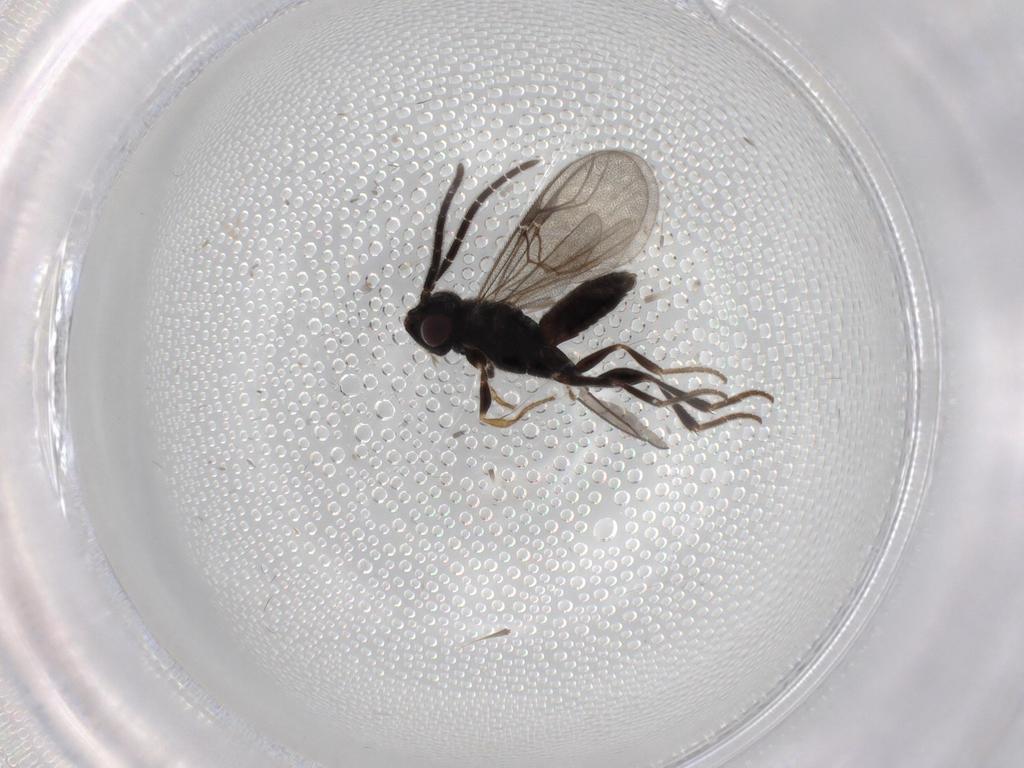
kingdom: Animalia
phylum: Arthropoda
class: Insecta
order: Hymenoptera
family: Dryinidae
